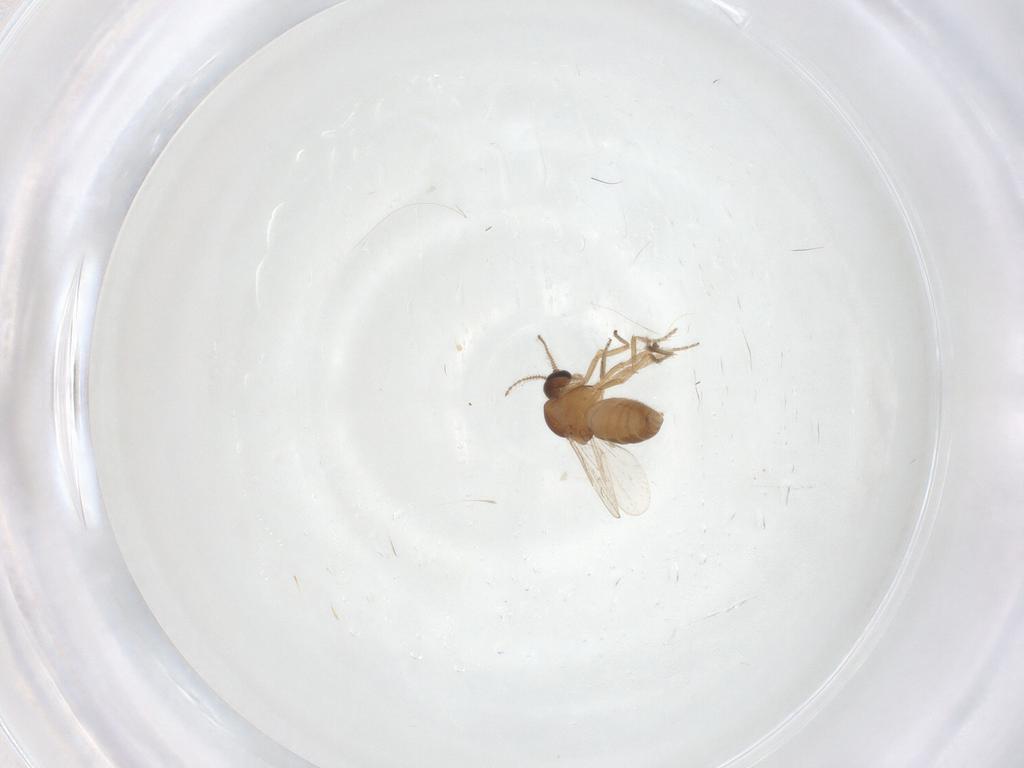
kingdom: Animalia
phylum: Arthropoda
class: Insecta
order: Diptera
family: Ceratopogonidae
